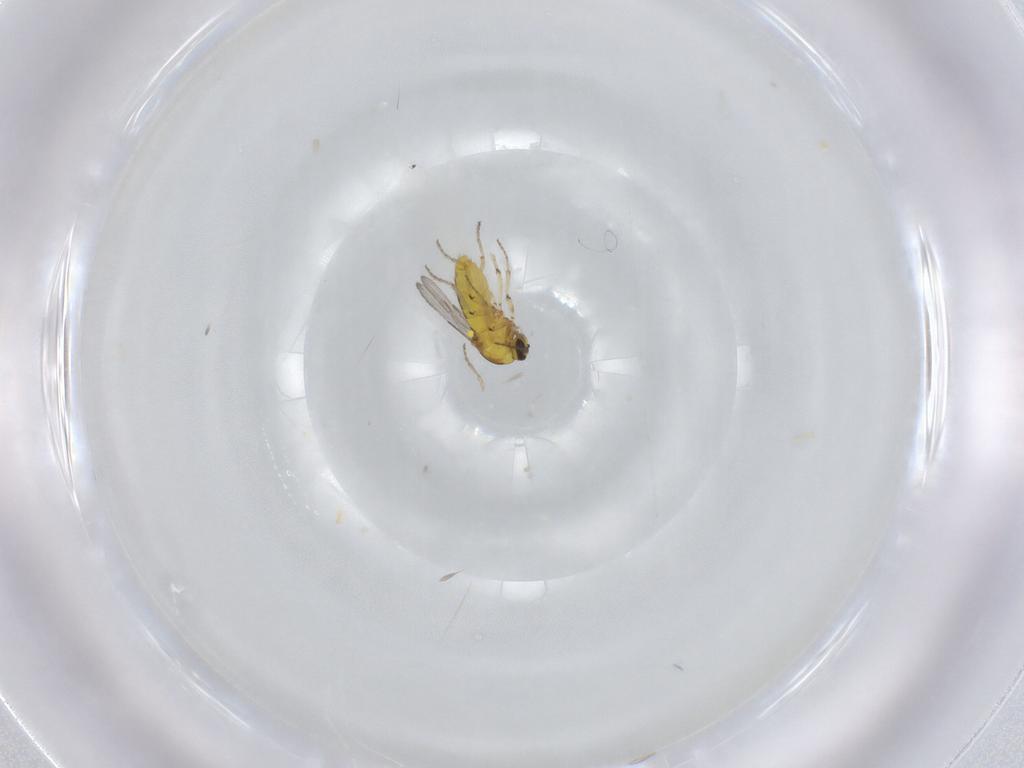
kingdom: Animalia
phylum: Arthropoda
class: Insecta
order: Diptera
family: Ceratopogonidae
